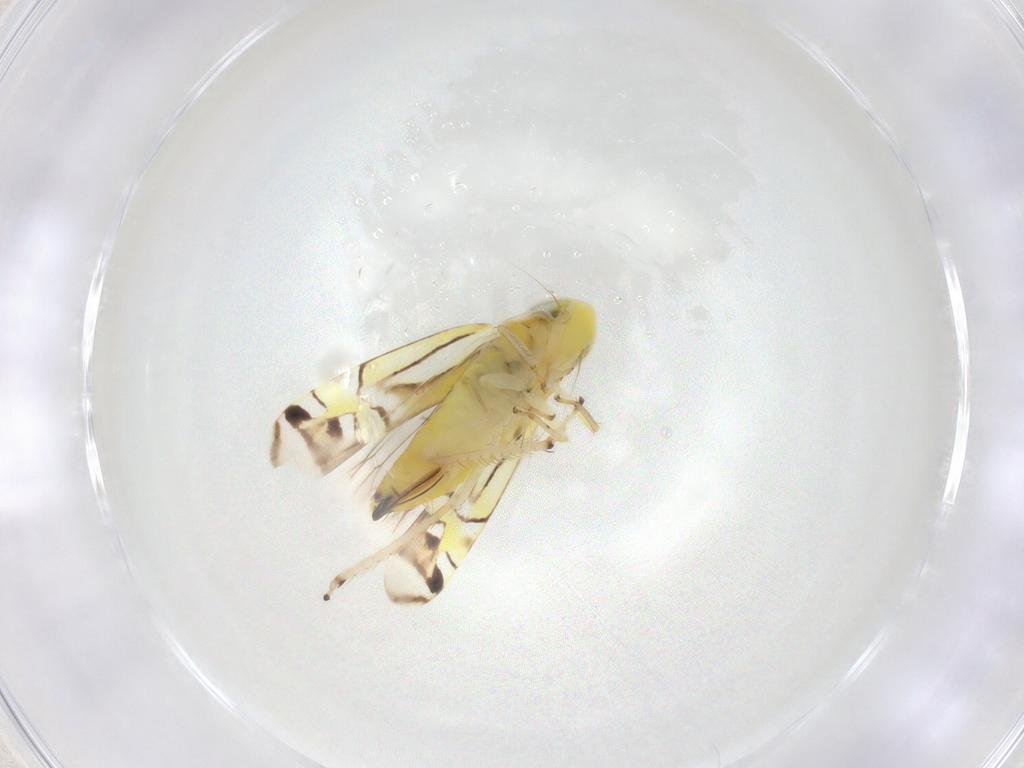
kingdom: Animalia
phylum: Arthropoda
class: Insecta
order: Hemiptera
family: Cicadellidae
